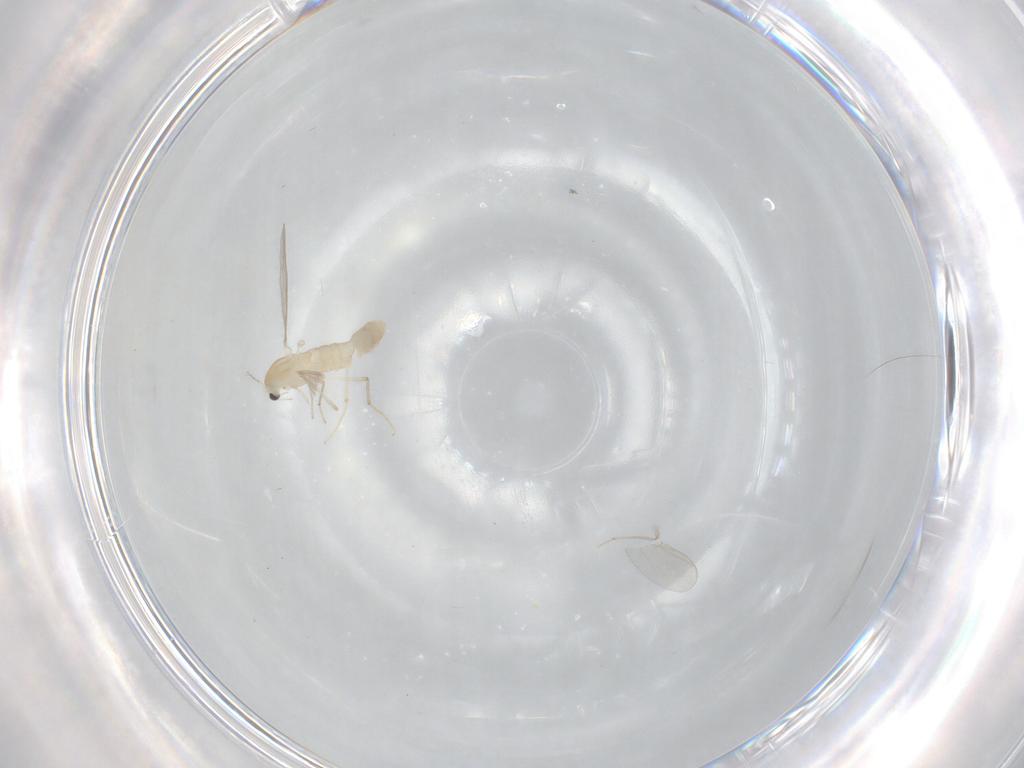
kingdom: Animalia
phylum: Arthropoda
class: Insecta
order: Diptera
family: Chironomidae
